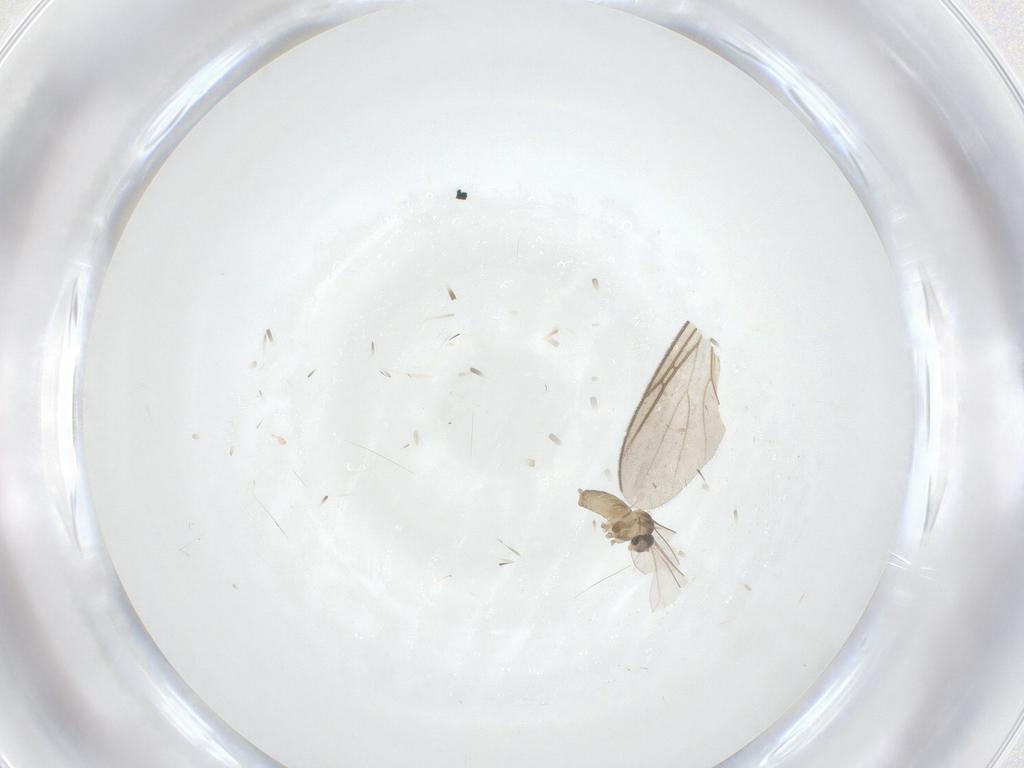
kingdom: Animalia
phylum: Arthropoda
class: Insecta
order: Diptera
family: Cecidomyiidae
